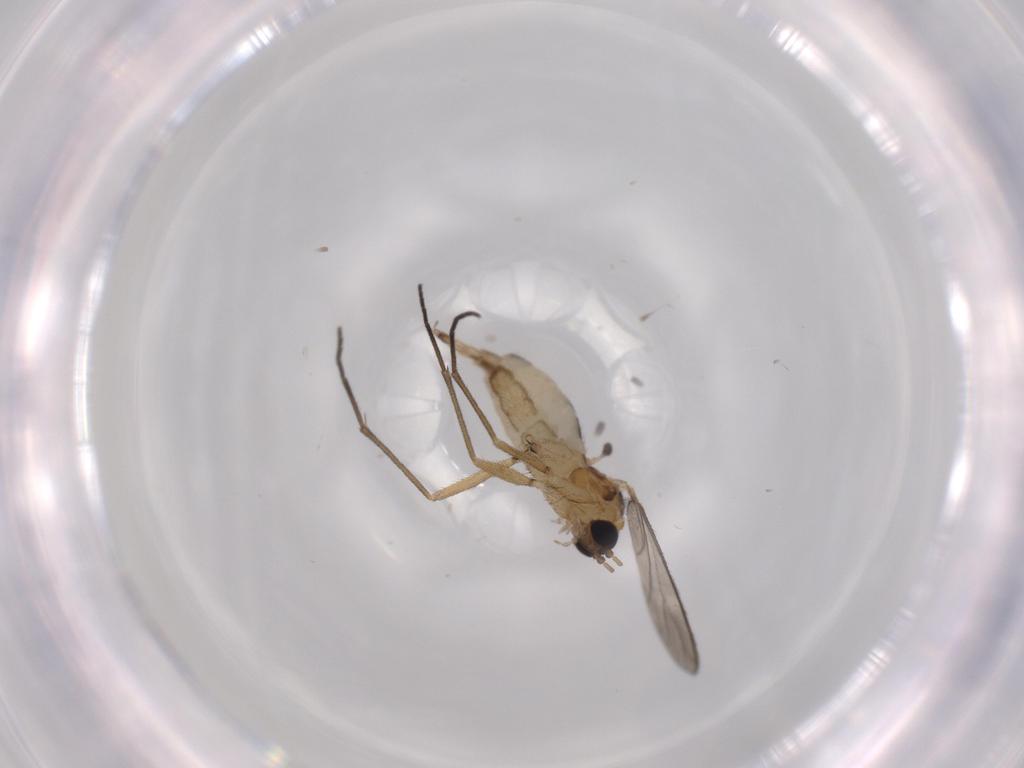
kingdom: Animalia
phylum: Arthropoda
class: Insecta
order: Diptera
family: Sciaridae
